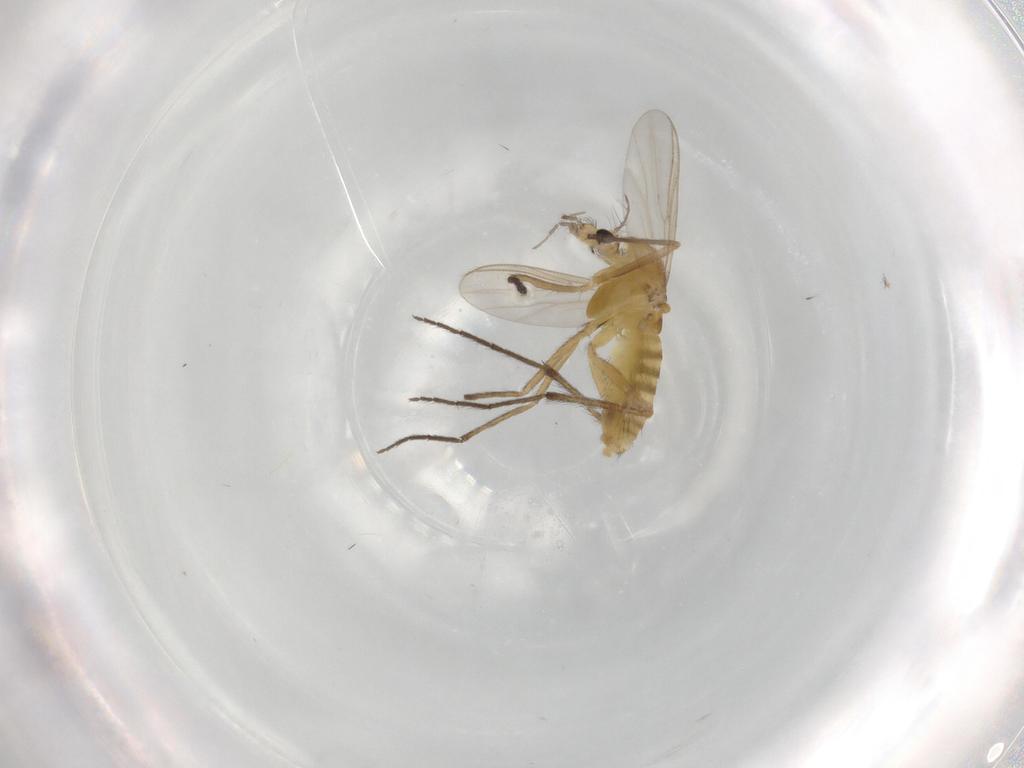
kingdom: Animalia
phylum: Arthropoda
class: Insecta
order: Diptera
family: Chironomidae
